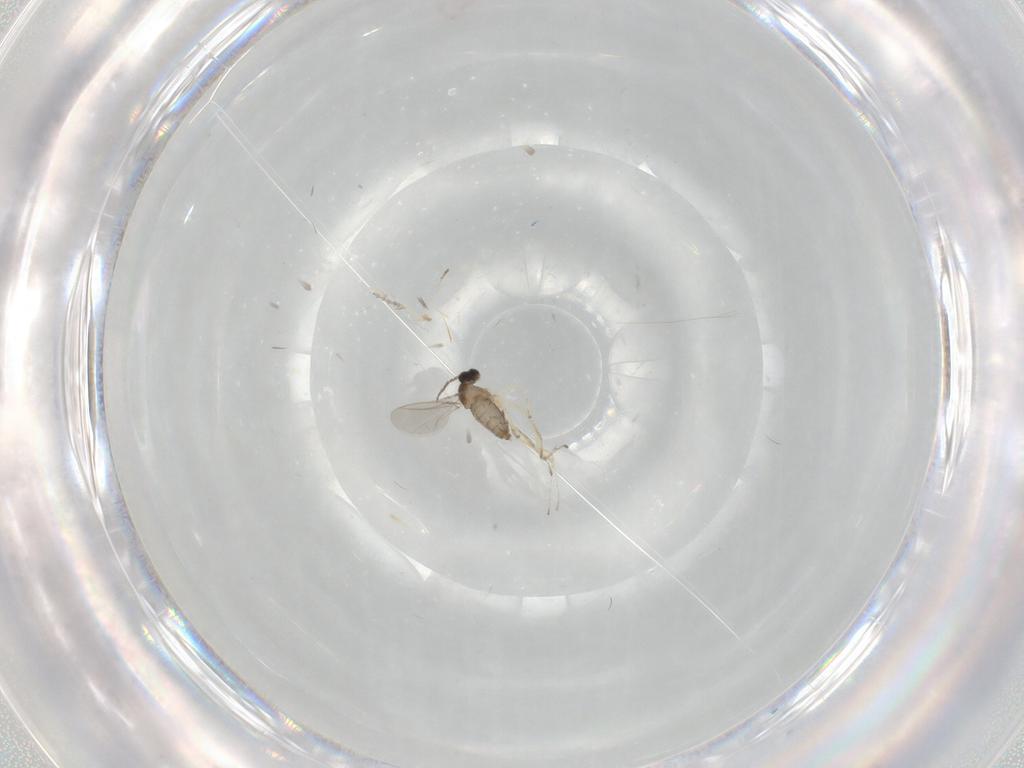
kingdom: Animalia
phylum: Arthropoda
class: Insecta
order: Diptera
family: Cecidomyiidae
